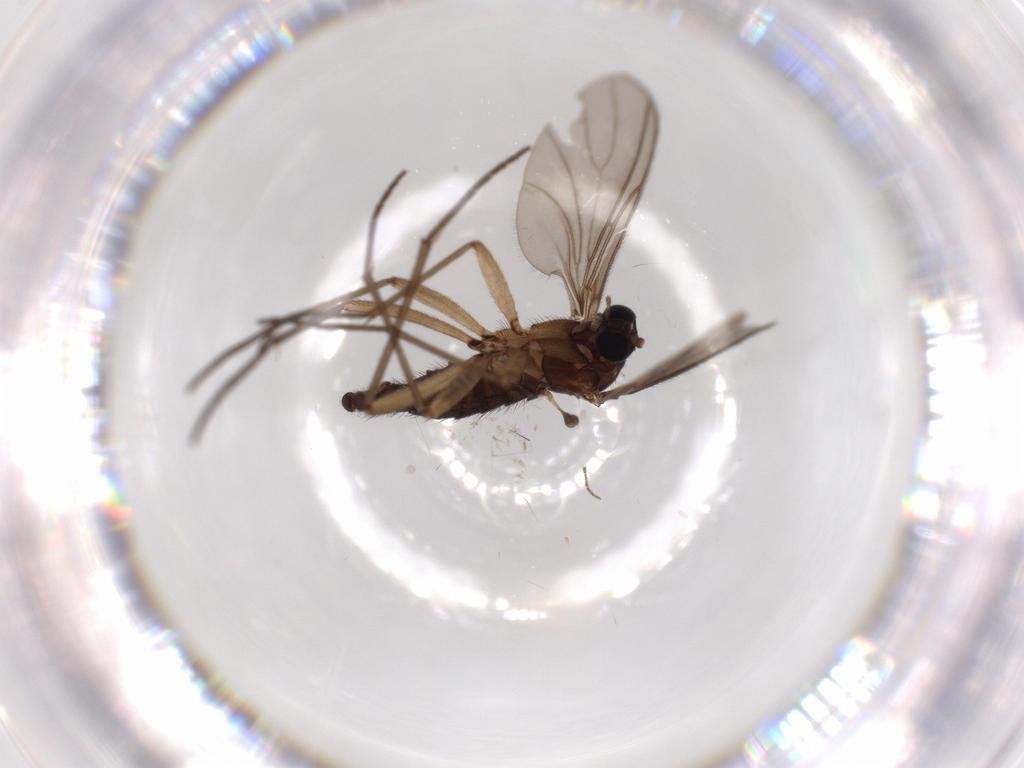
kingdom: Animalia
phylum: Arthropoda
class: Insecta
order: Diptera
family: Sciaridae
